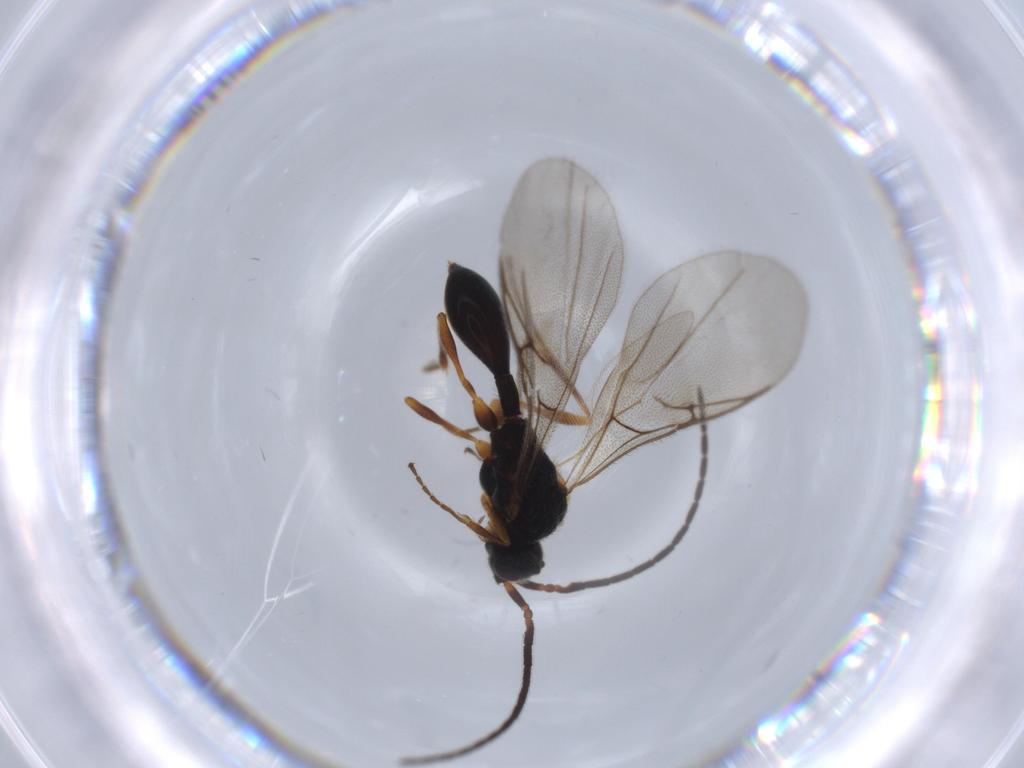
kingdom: Animalia
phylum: Arthropoda
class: Insecta
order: Hymenoptera
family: Diapriidae
